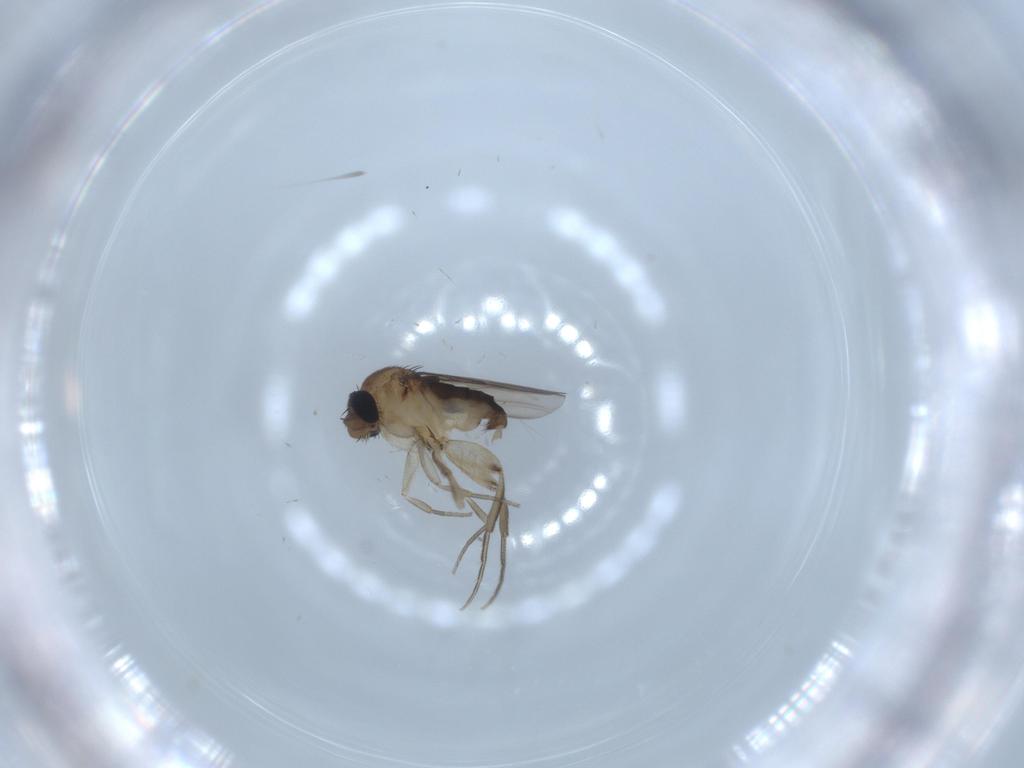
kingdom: Animalia
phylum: Arthropoda
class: Insecta
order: Diptera
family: Phoridae
